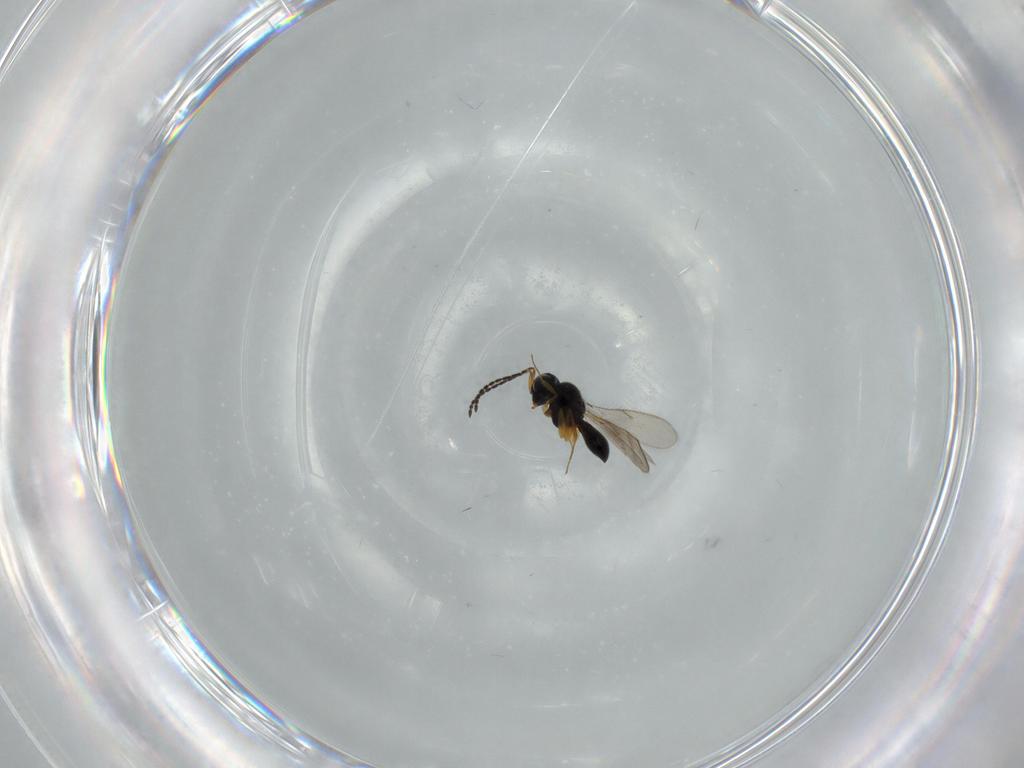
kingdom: Animalia
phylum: Arthropoda
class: Insecta
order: Hymenoptera
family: Scelionidae
